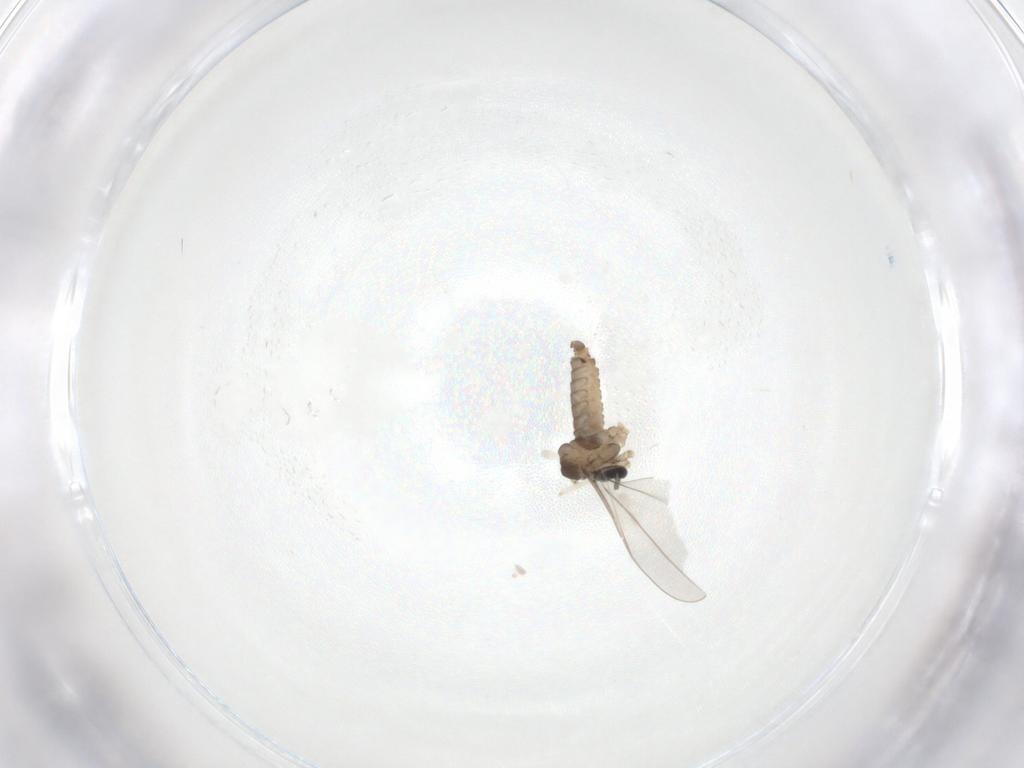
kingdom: Animalia
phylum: Arthropoda
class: Insecta
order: Diptera
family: Cecidomyiidae
